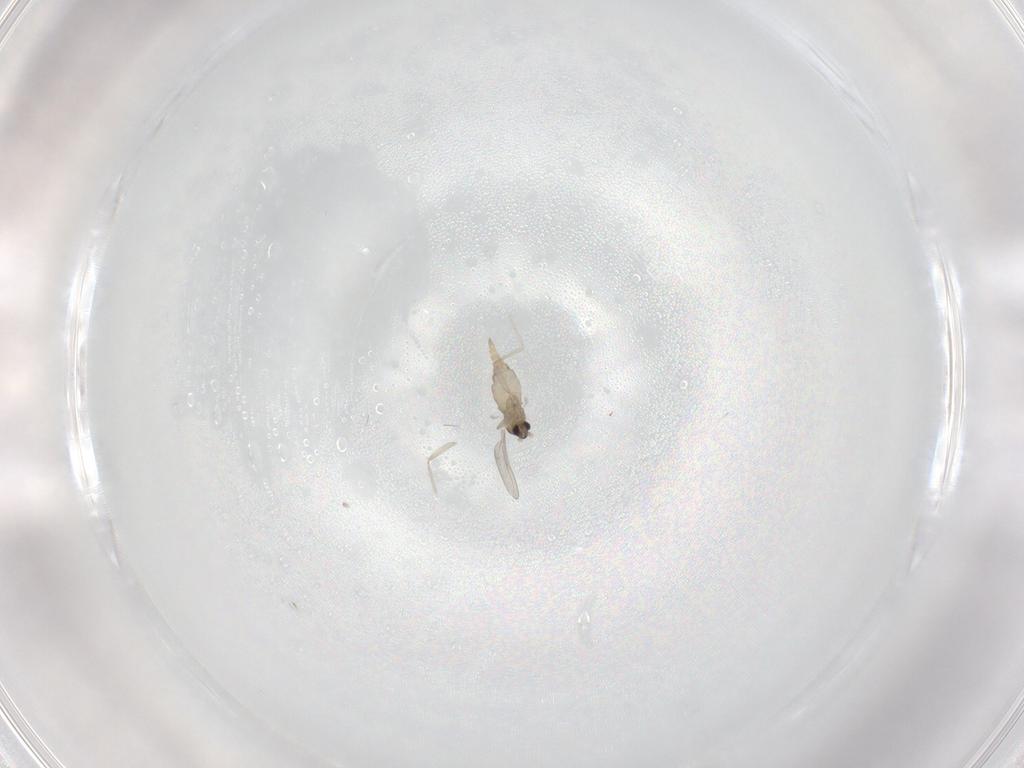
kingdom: Animalia
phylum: Arthropoda
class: Insecta
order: Diptera
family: Cecidomyiidae
